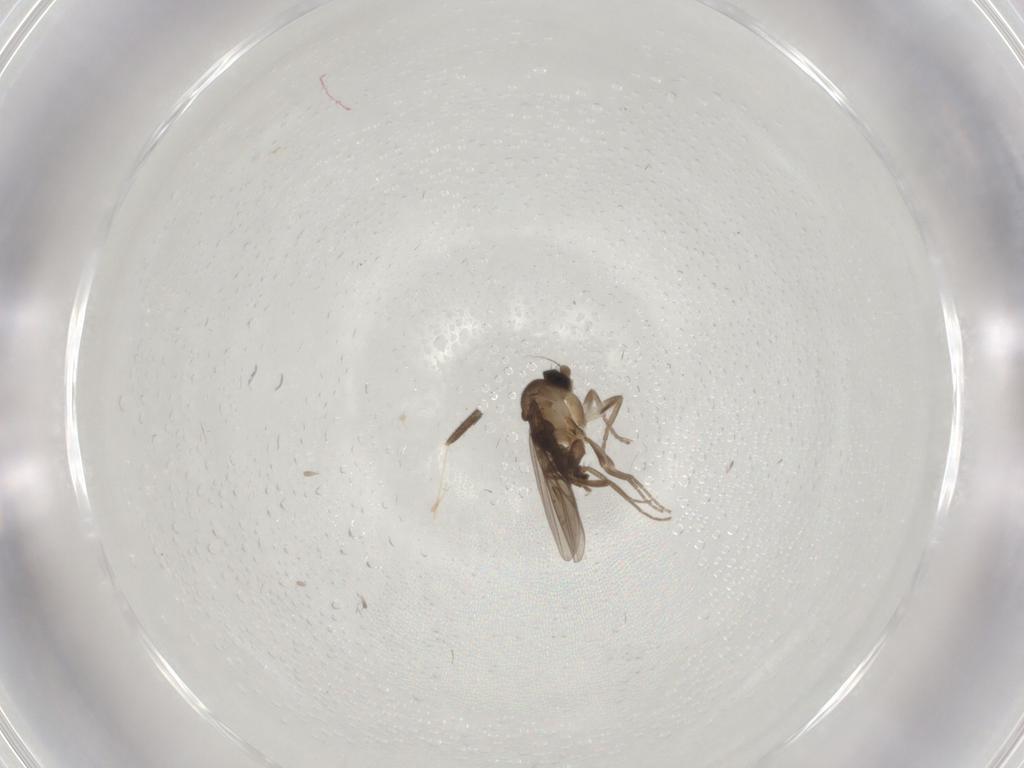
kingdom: Animalia
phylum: Arthropoda
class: Insecta
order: Diptera
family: Mycetophilidae
